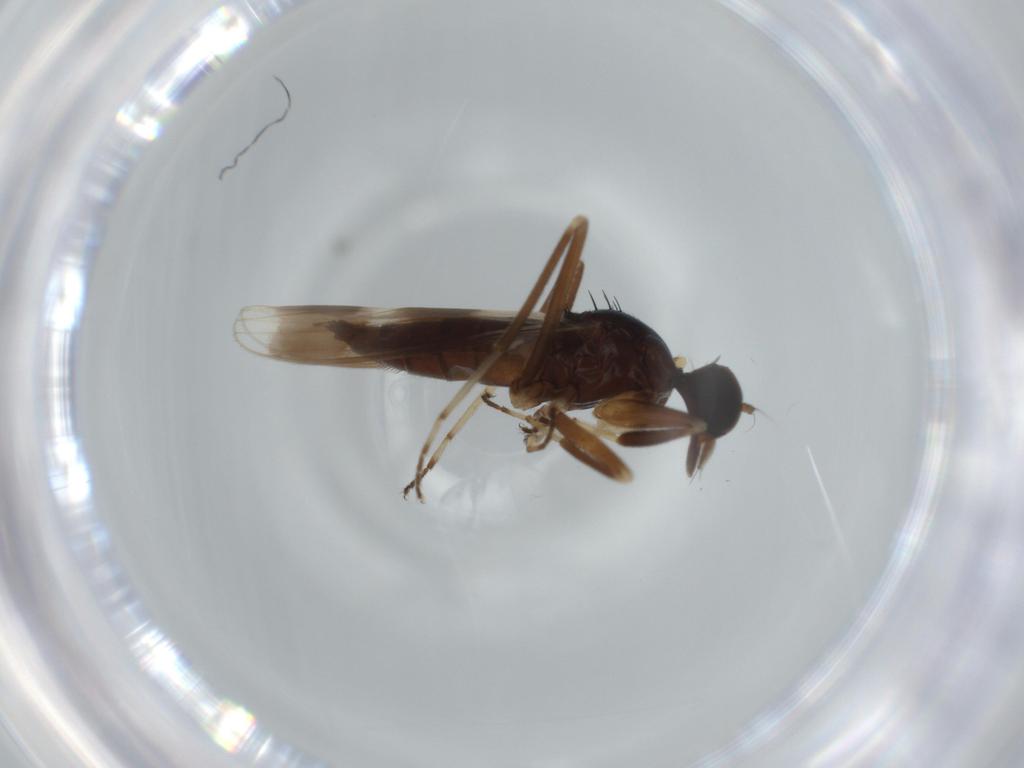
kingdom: Animalia
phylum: Arthropoda
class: Insecta
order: Diptera
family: Hybotidae
